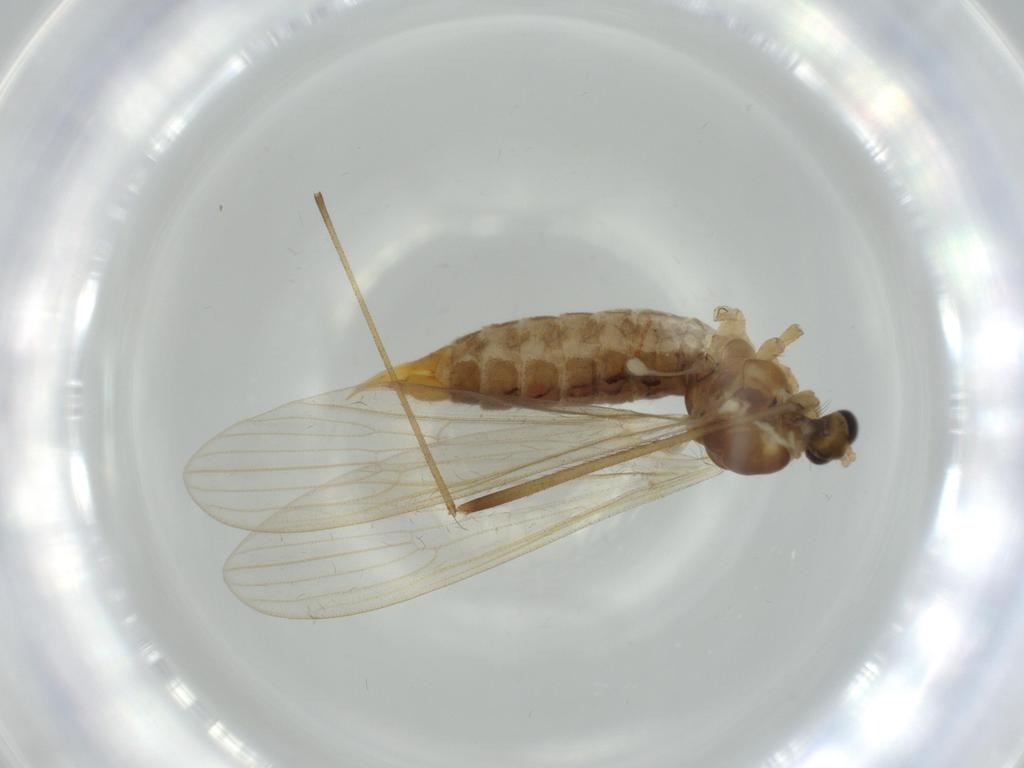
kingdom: Animalia
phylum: Arthropoda
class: Insecta
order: Diptera
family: Limoniidae
